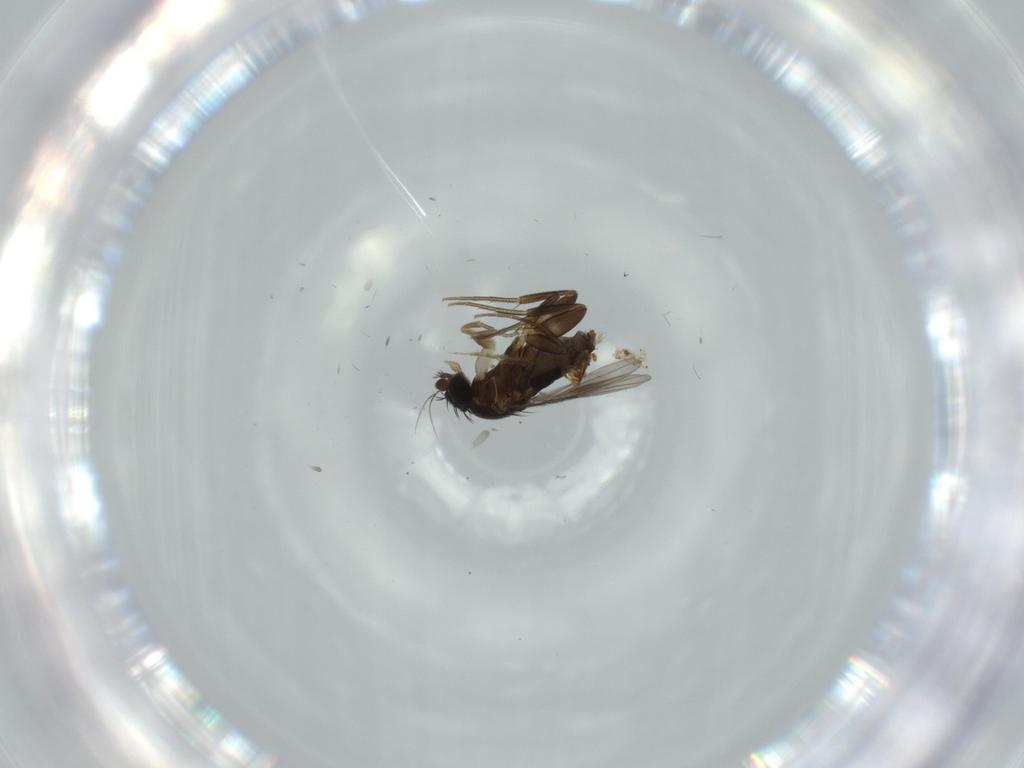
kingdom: Animalia
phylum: Arthropoda
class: Insecta
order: Diptera
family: Phoridae
